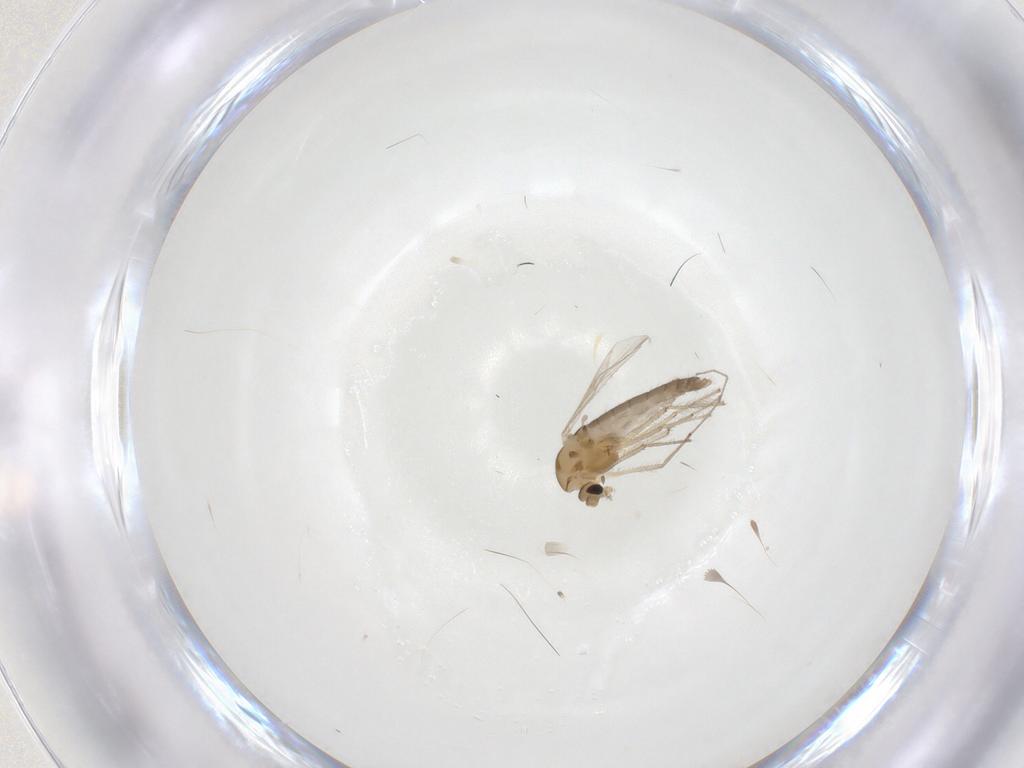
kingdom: Animalia
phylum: Arthropoda
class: Insecta
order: Diptera
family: Chironomidae
